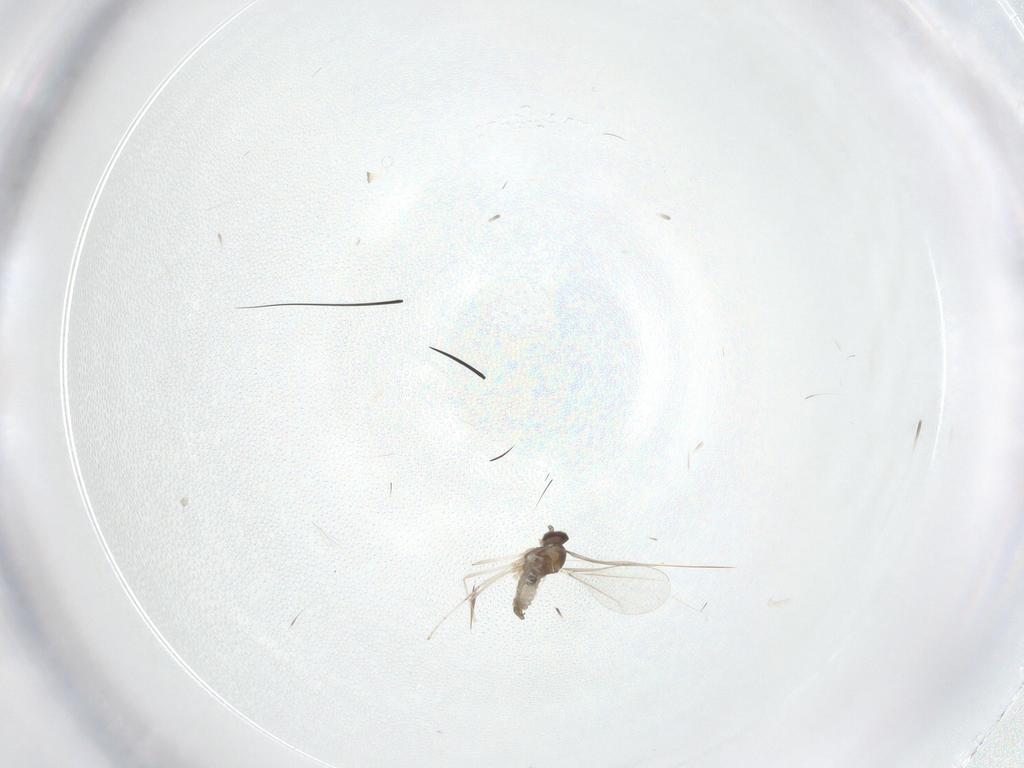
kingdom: Animalia
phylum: Arthropoda
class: Insecta
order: Diptera
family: Cecidomyiidae
